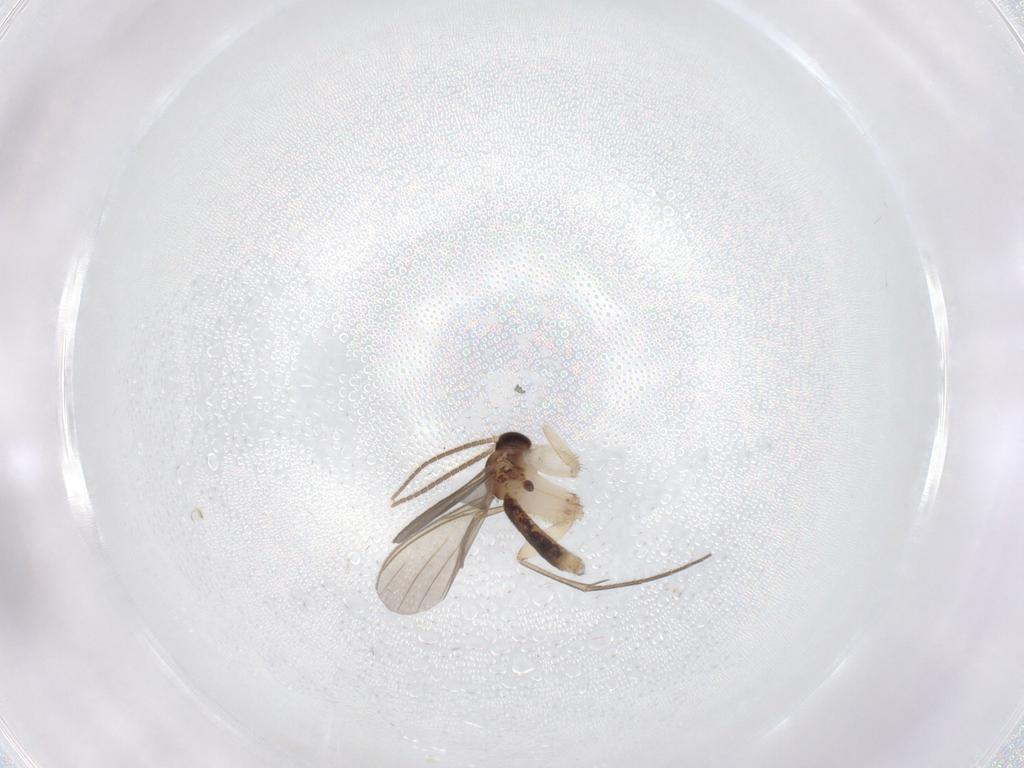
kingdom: Animalia
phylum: Arthropoda
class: Insecta
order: Diptera
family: Mycetophilidae
